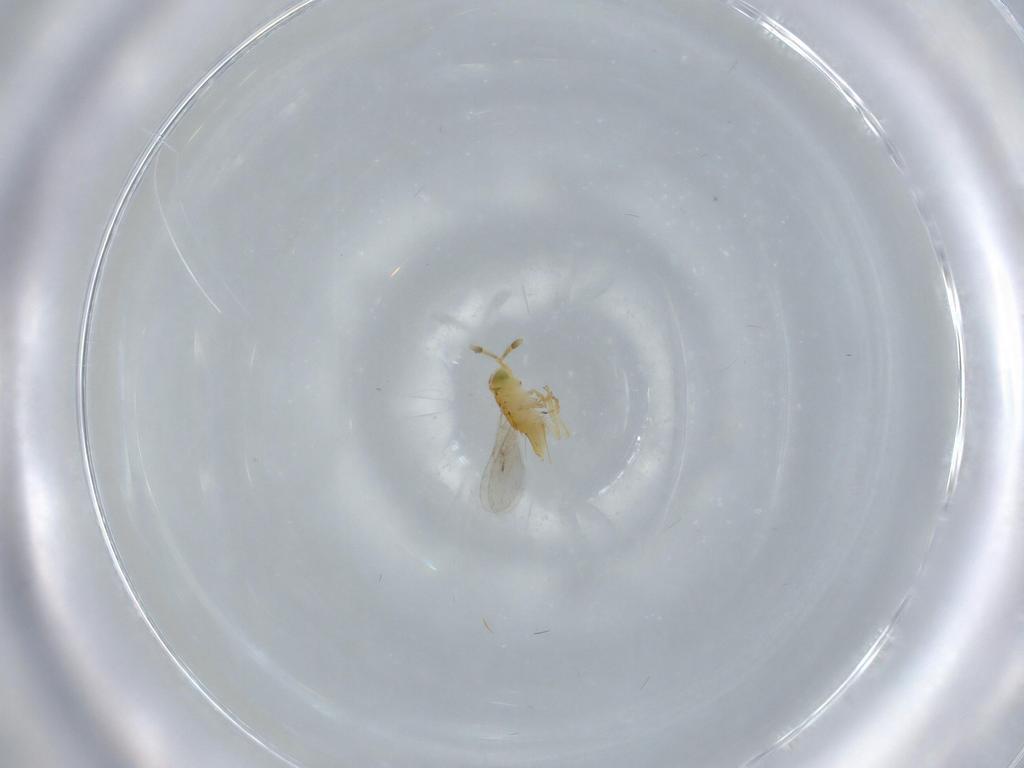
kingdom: Animalia
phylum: Arthropoda
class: Insecta
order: Hymenoptera
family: Encyrtidae
